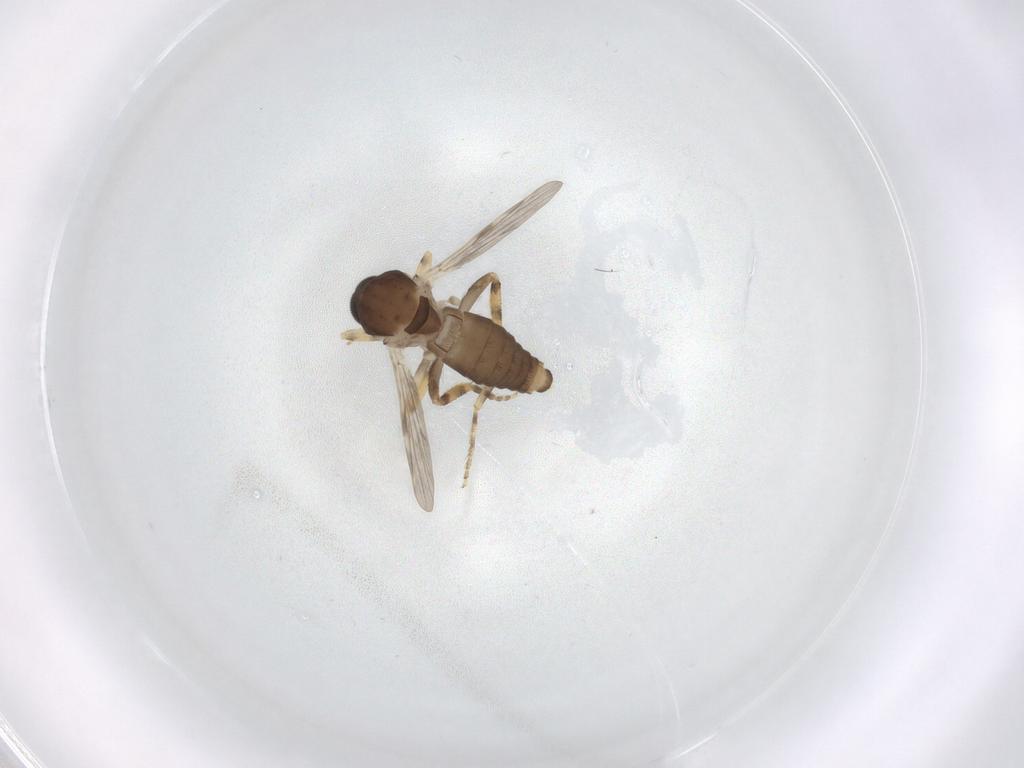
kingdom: Animalia
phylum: Arthropoda
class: Insecta
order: Diptera
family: Ceratopogonidae
